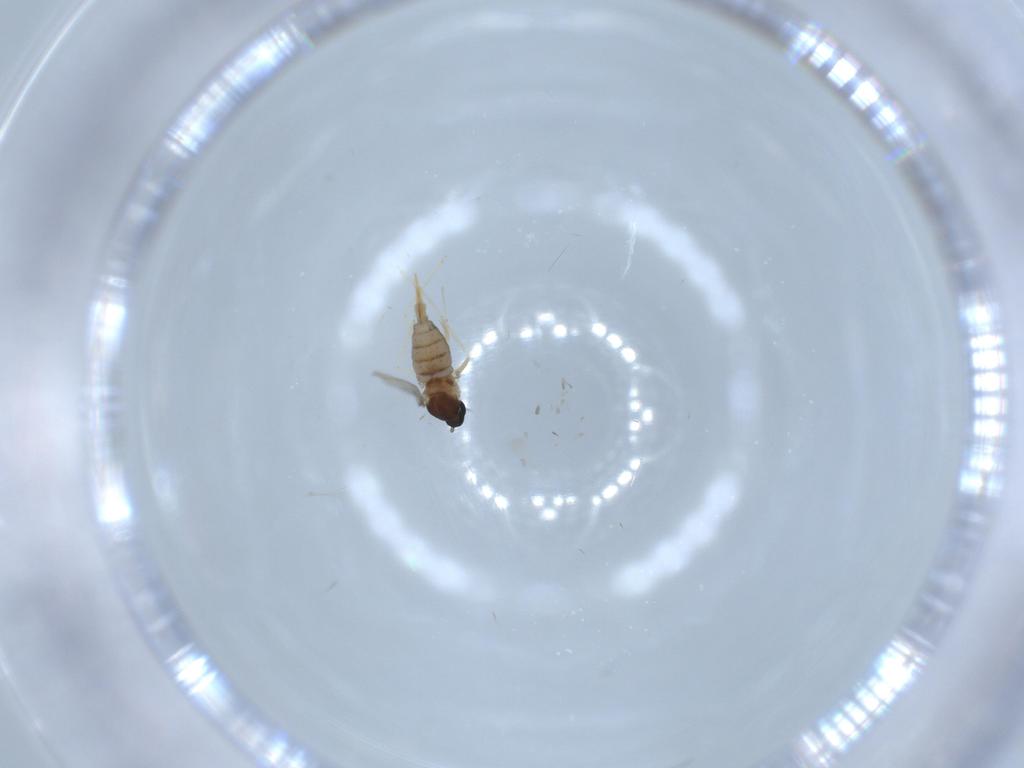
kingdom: Animalia
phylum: Arthropoda
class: Insecta
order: Diptera
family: Cecidomyiidae
